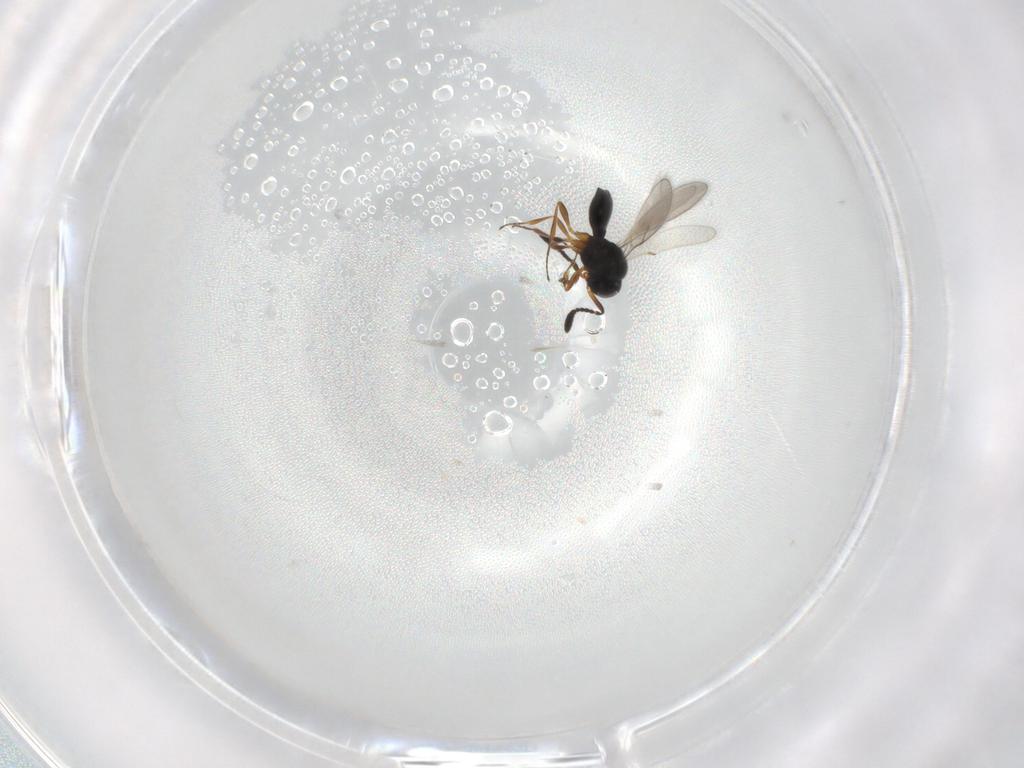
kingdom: Animalia
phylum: Arthropoda
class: Insecta
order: Hymenoptera
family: Scelionidae
